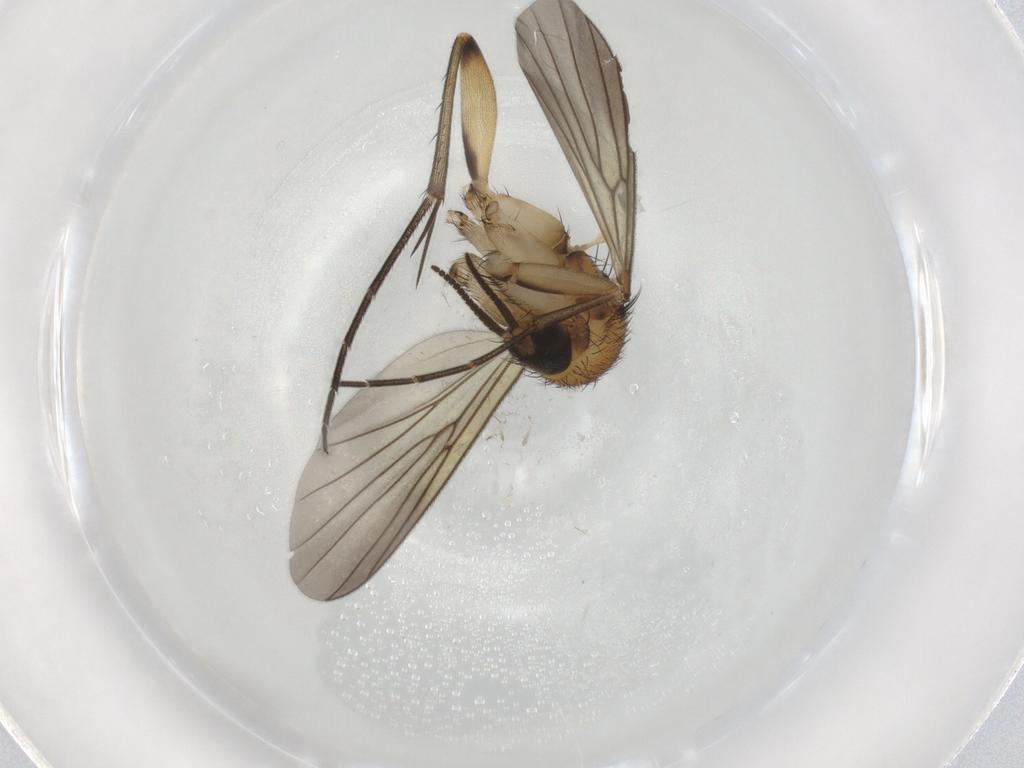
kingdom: Animalia
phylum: Arthropoda
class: Insecta
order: Diptera
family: Mycetophilidae
